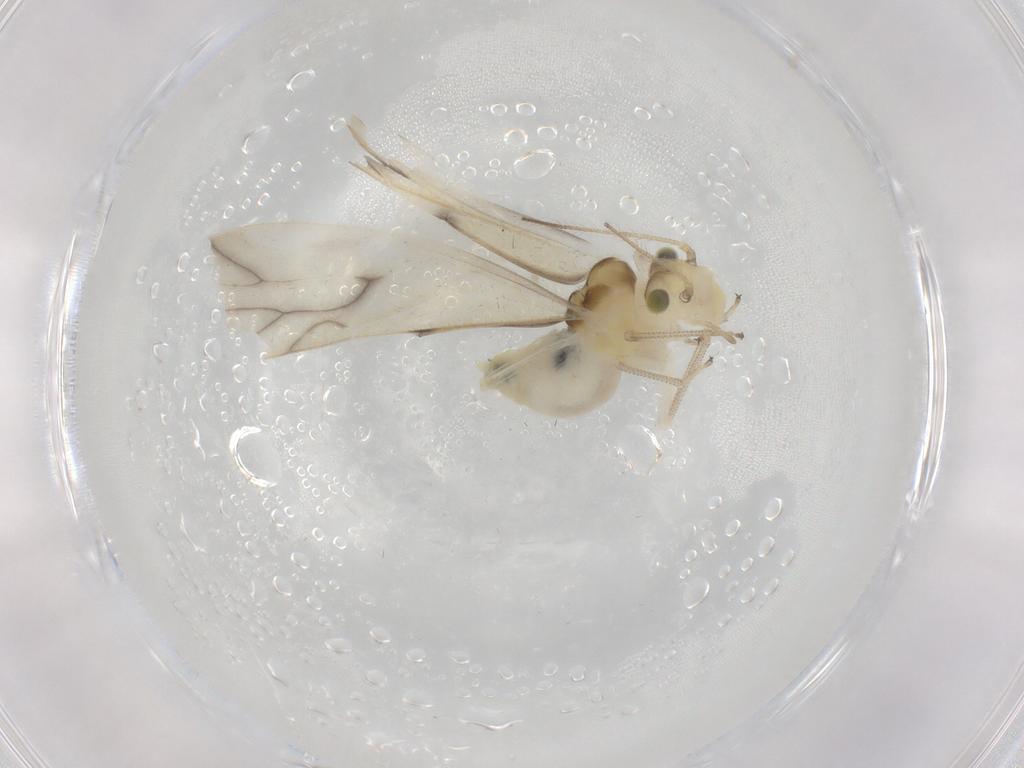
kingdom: Animalia
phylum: Arthropoda
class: Insecta
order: Psocodea
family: Caeciliusidae
